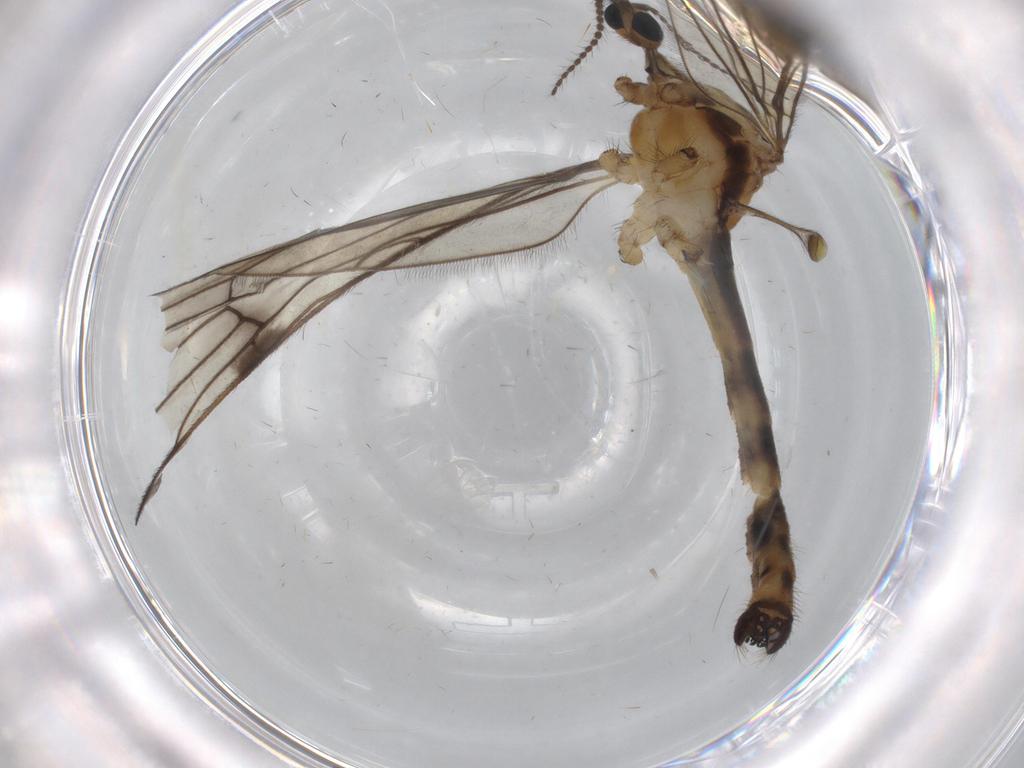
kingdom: Animalia
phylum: Arthropoda
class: Insecta
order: Diptera
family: Limoniidae
